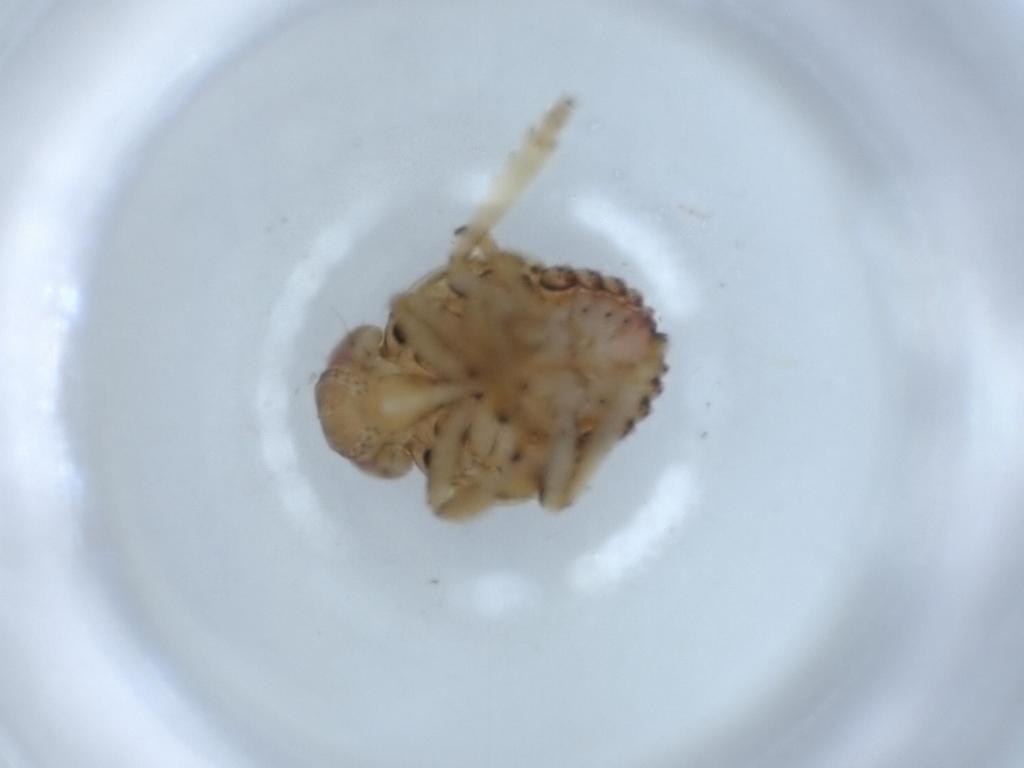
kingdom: Animalia
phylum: Arthropoda
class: Insecta
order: Hemiptera
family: Issidae
